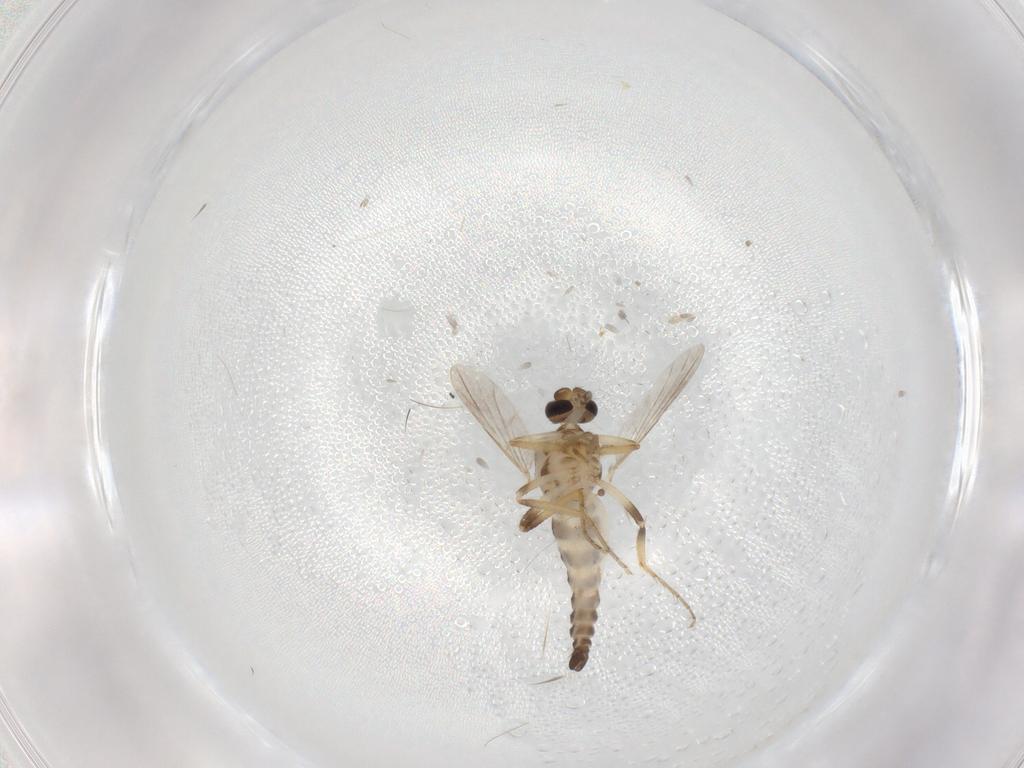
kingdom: Animalia
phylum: Arthropoda
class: Insecta
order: Diptera
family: Ceratopogonidae
